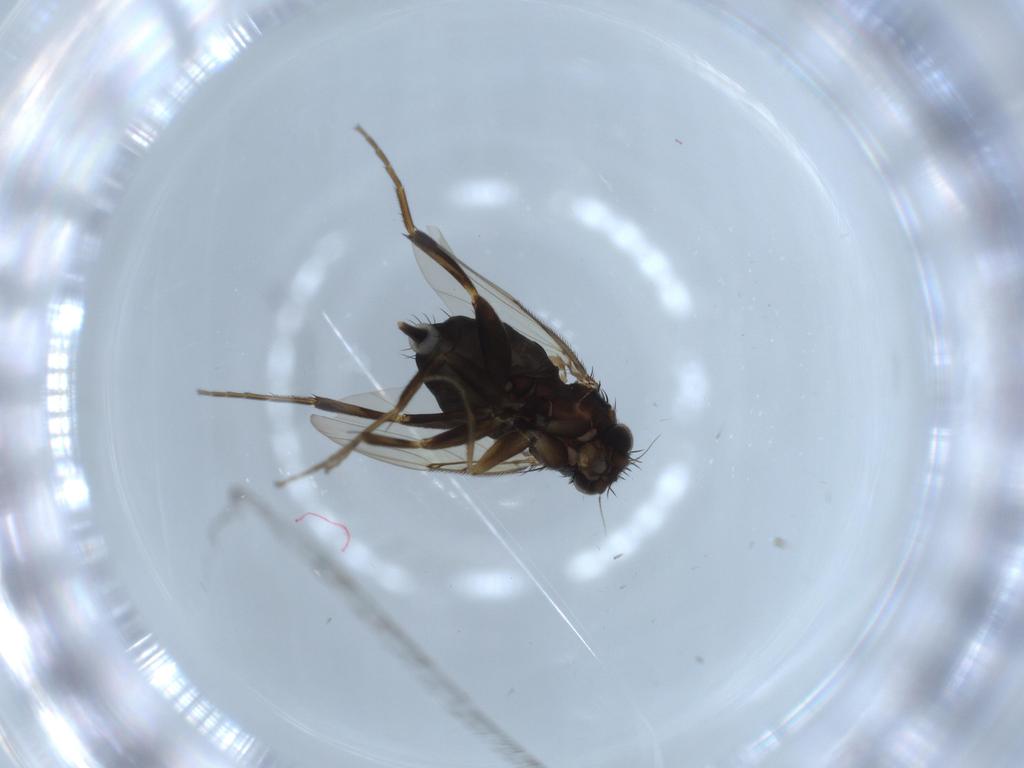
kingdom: Animalia
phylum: Arthropoda
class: Insecta
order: Diptera
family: Phoridae
